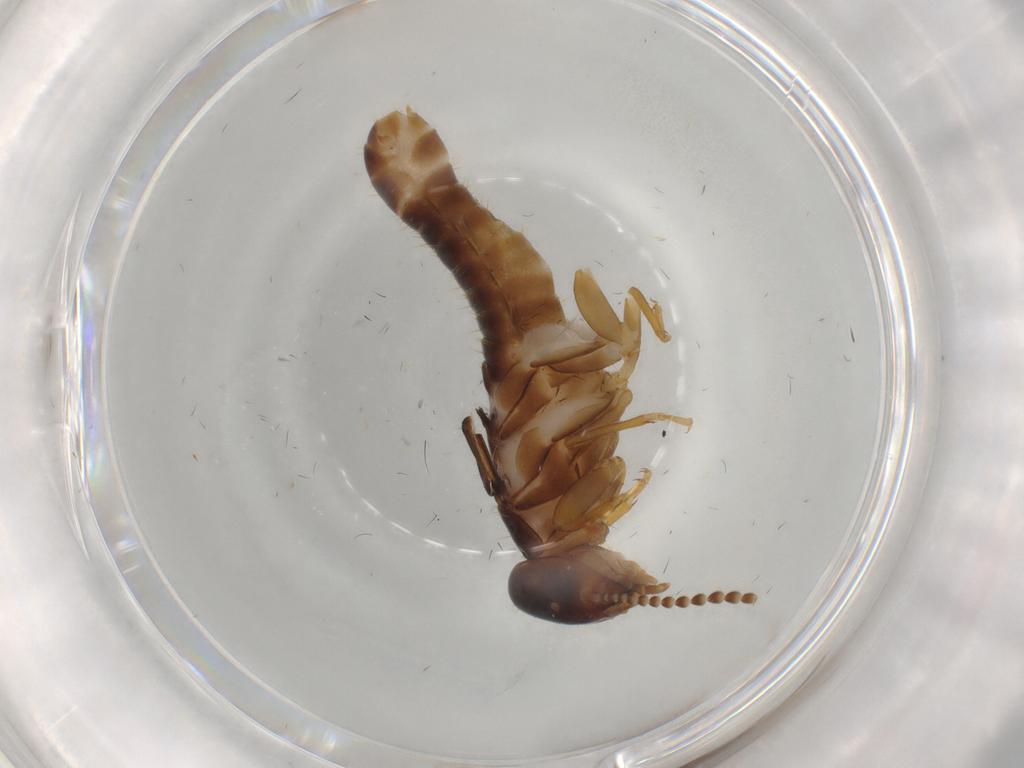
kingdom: Animalia
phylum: Arthropoda
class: Insecta
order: Blattodea
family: Kalotermitidae
